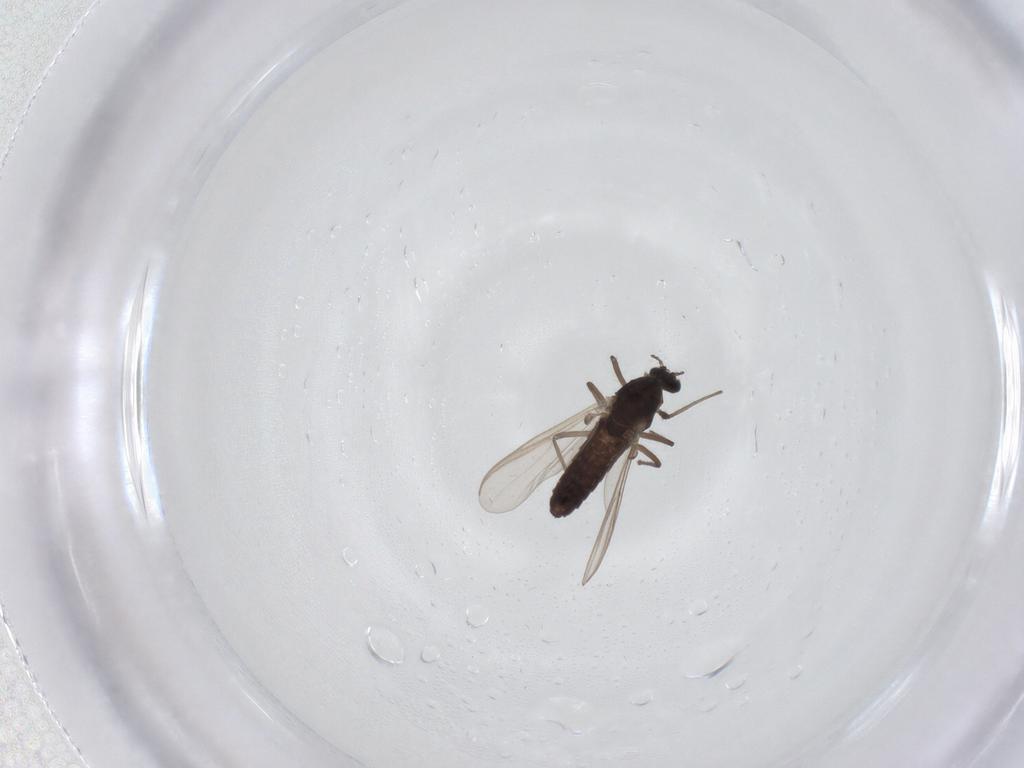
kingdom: Animalia
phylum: Arthropoda
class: Insecta
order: Diptera
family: Chironomidae
